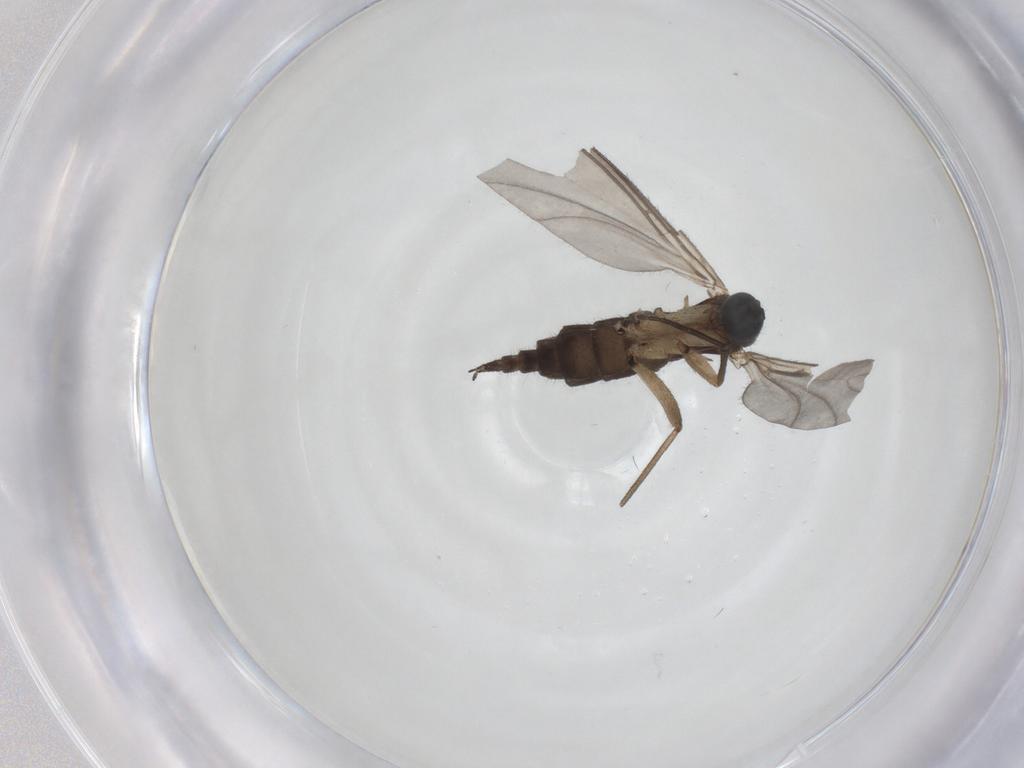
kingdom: Animalia
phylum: Arthropoda
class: Insecta
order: Diptera
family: Sciaridae
